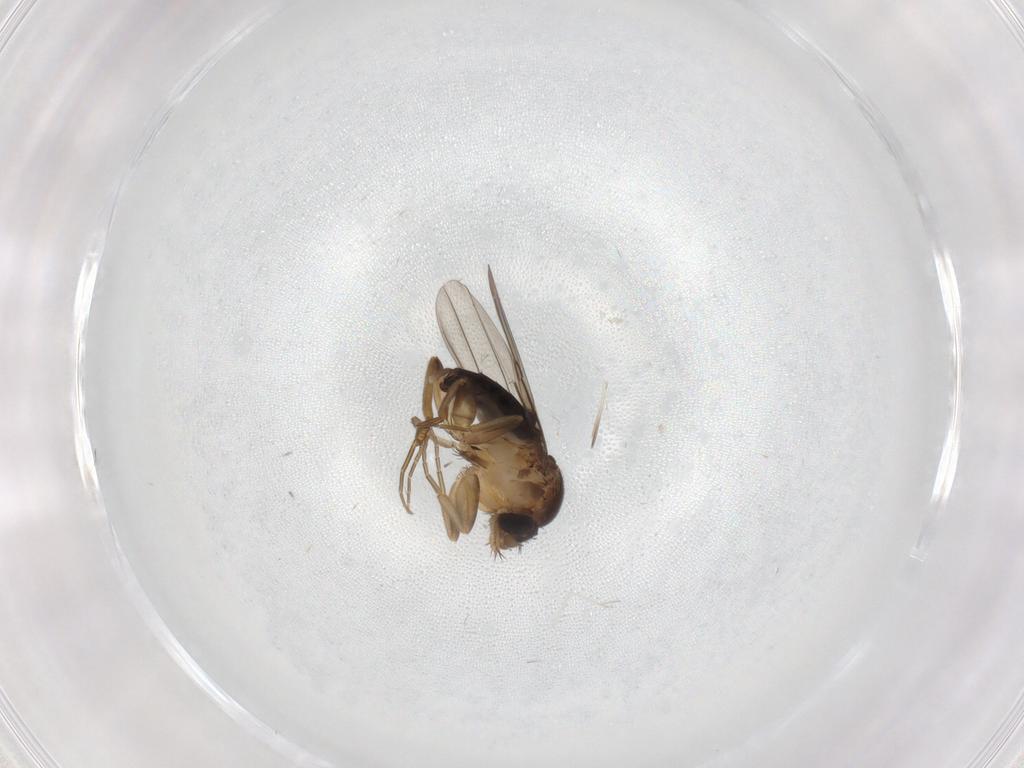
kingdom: Animalia
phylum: Arthropoda
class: Insecta
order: Diptera
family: Phoridae
